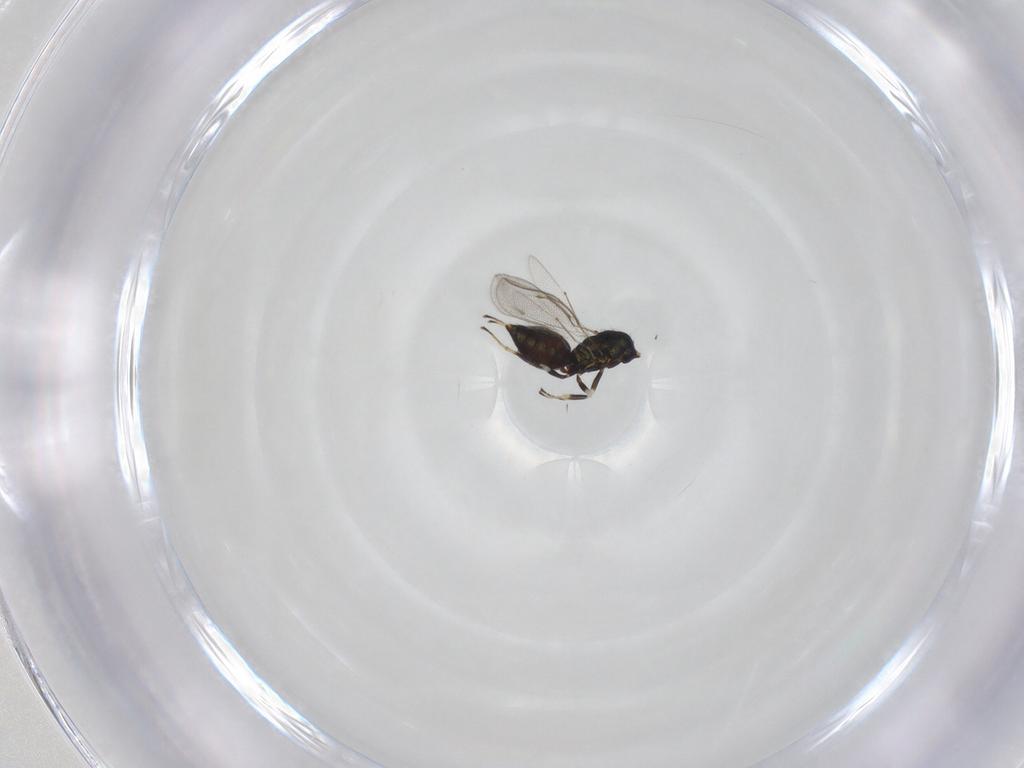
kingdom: Animalia
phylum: Arthropoda
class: Insecta
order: Hymenoptera
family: Eulophidae
